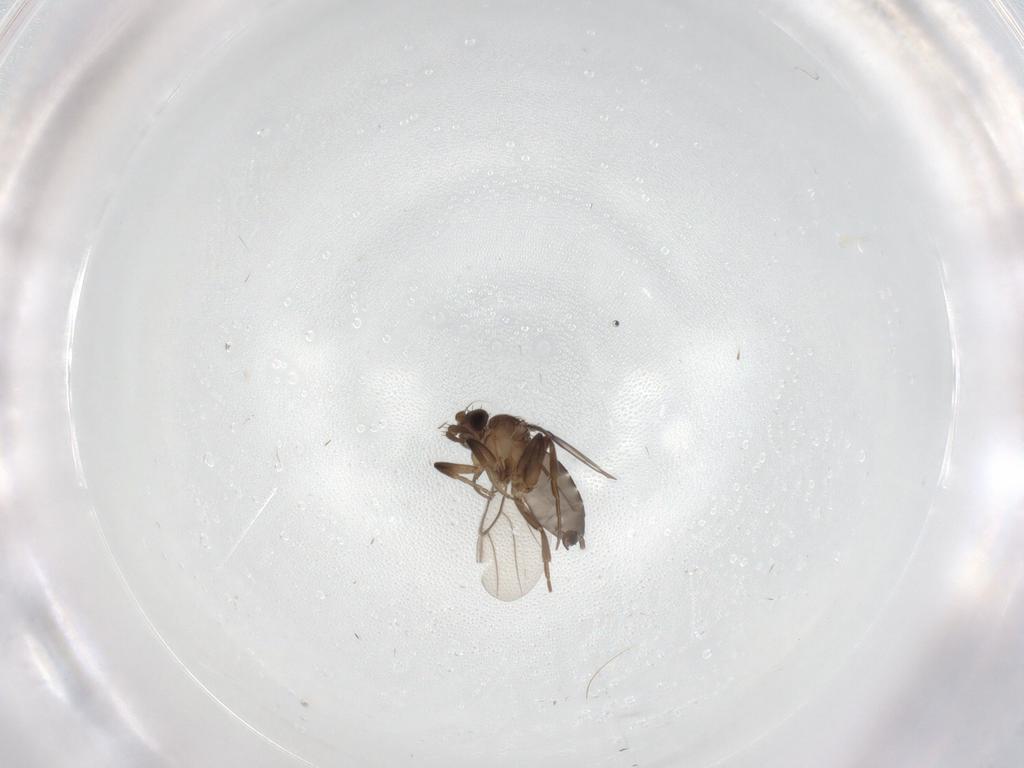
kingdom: Animalia
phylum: Arthropoda
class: Insecta
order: Diptera
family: Phoridae
